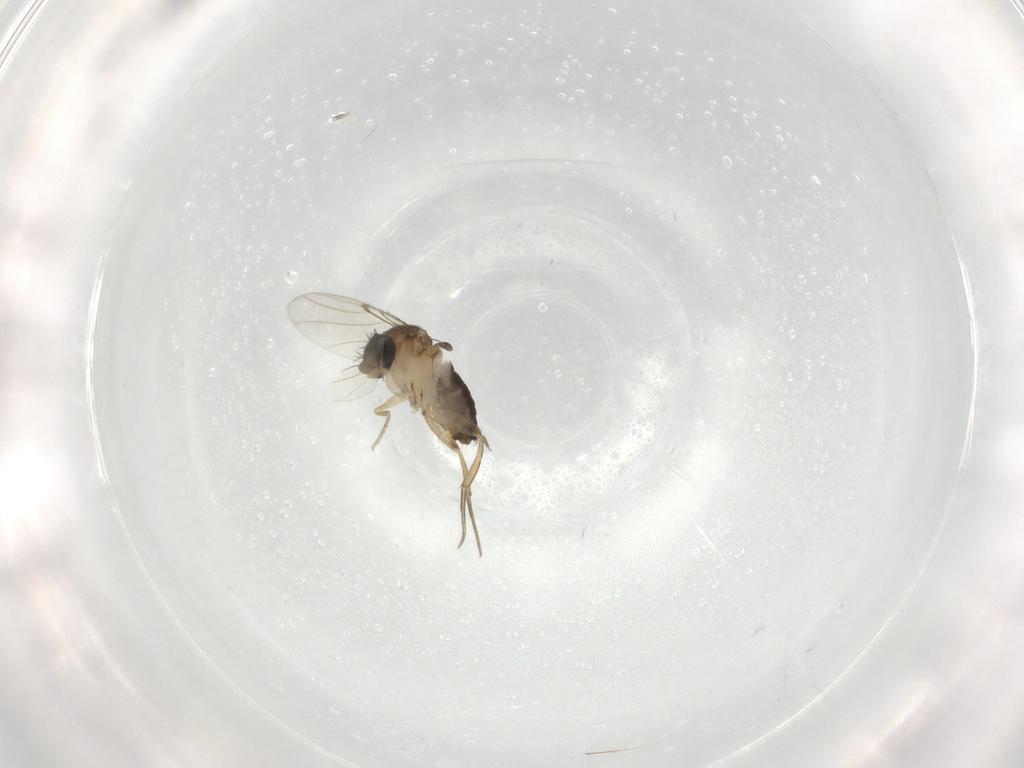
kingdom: Animalia
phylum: Arthropoda
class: Insecta
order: Diptera
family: Phoridae
